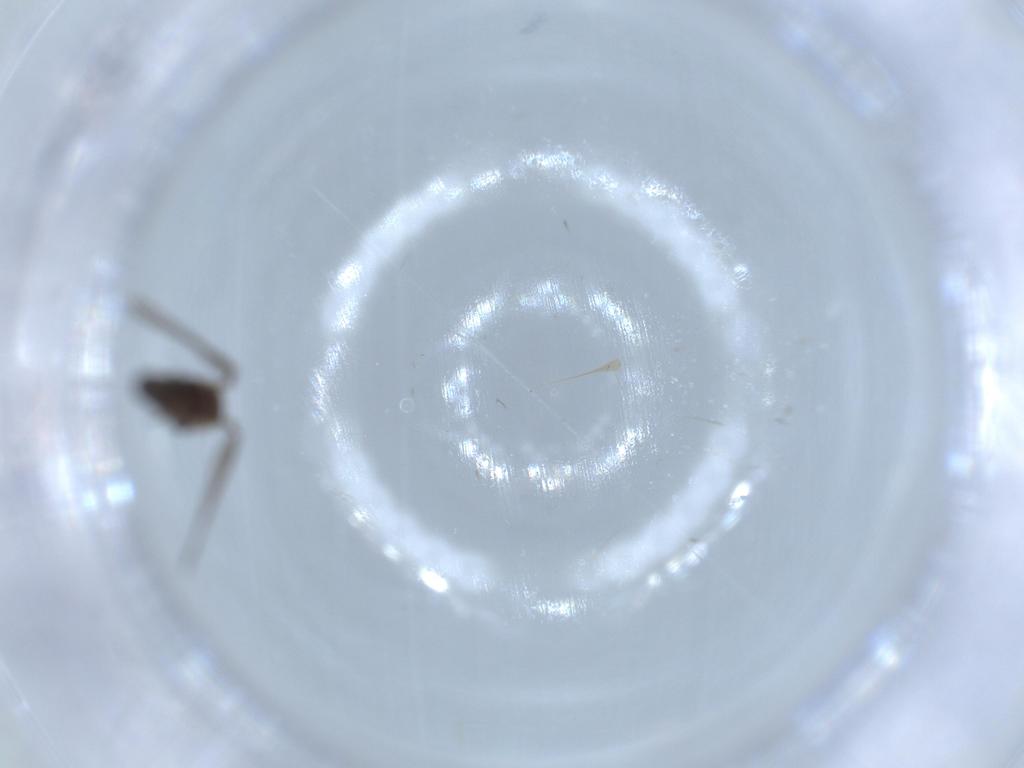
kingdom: Animalia
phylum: Arthropoda
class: Insecta
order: Diptera
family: Psychodidae
